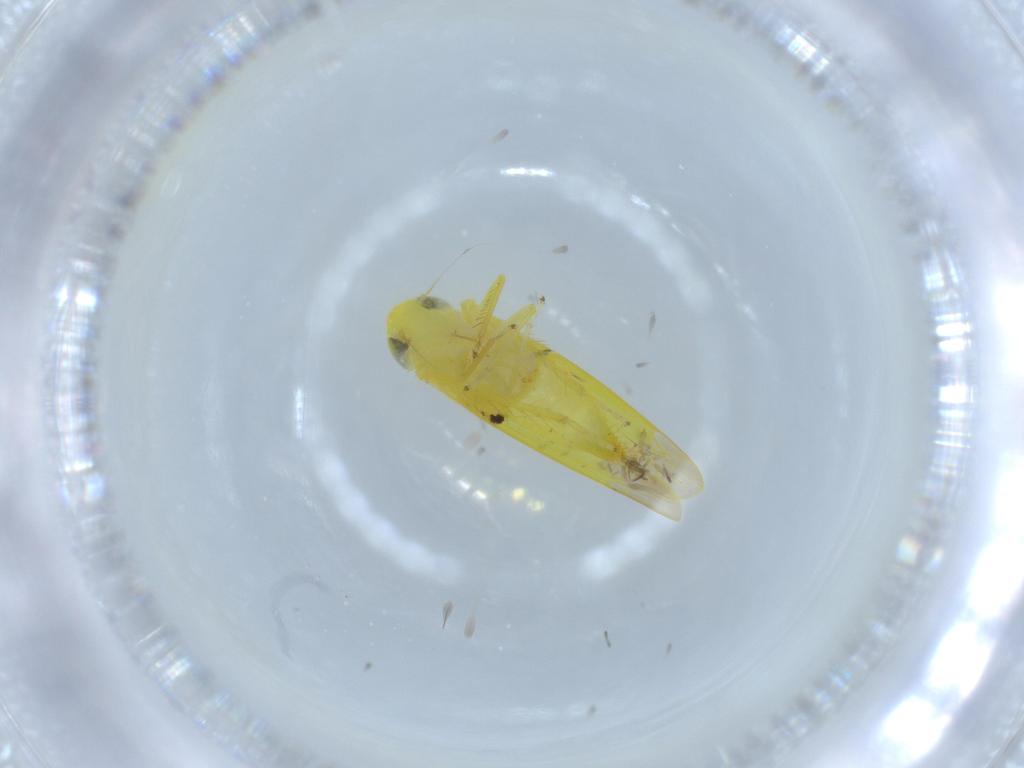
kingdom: Animalia
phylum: Arthropoda
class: Insecta
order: Hemiptera
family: Cicadellidae
